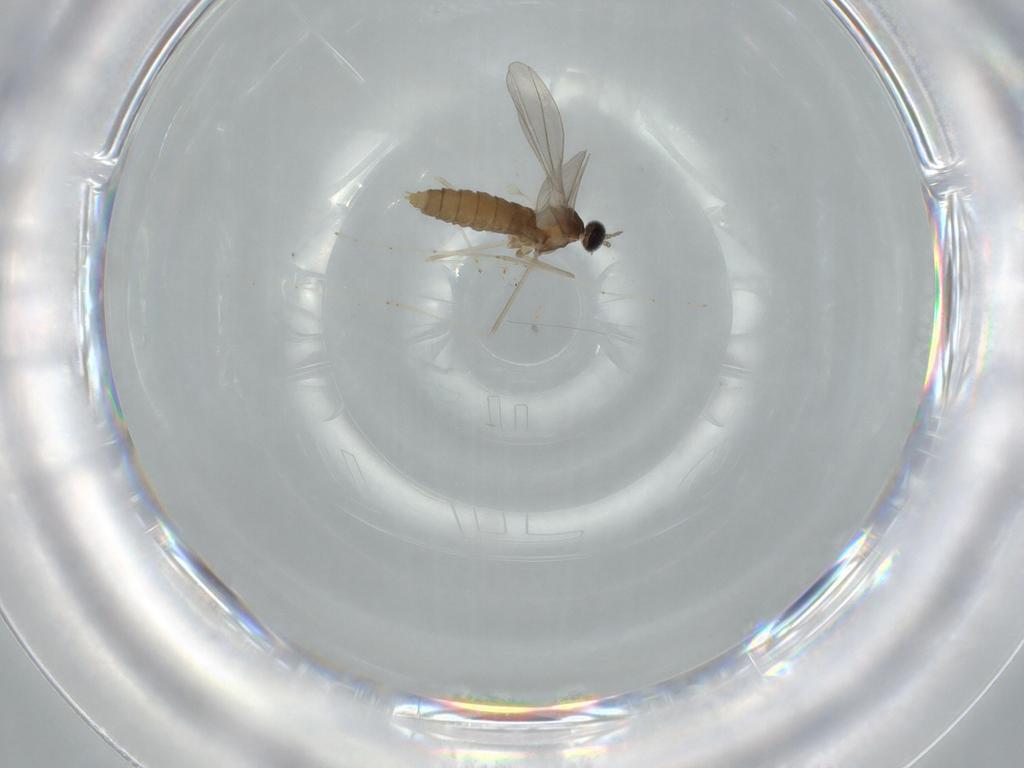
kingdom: Animalia
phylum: Arthropoda
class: Insecta
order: Diptera
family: Cecidomyiidae
